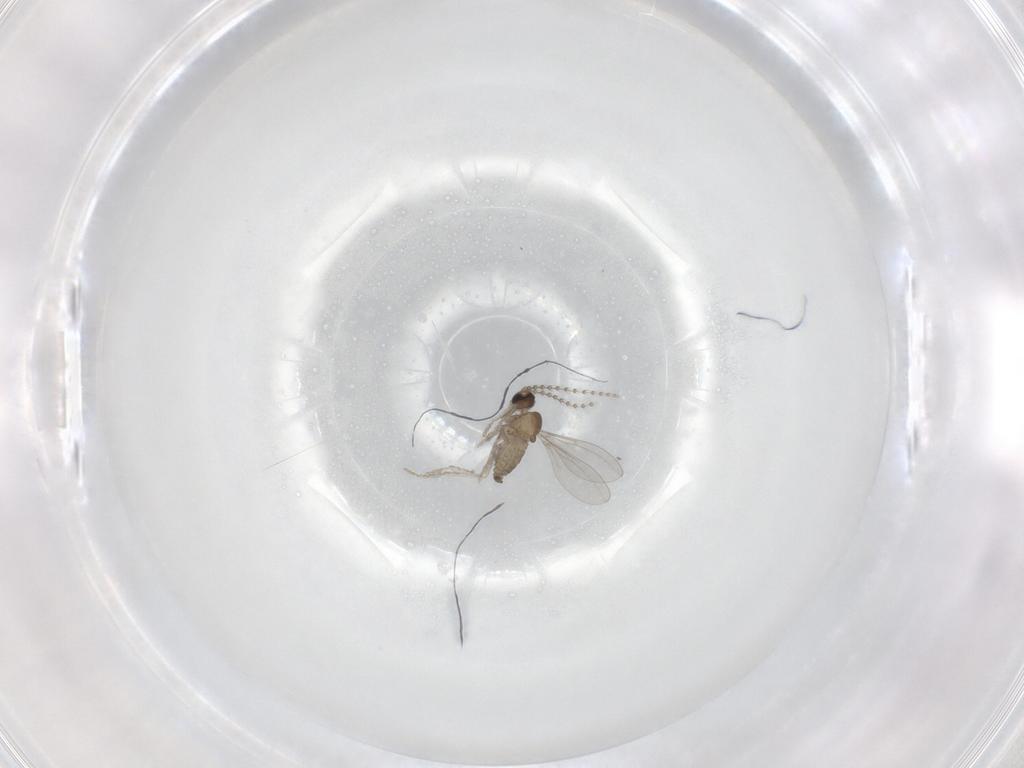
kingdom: Animalia
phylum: Arthropoda
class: Insecta
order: Diptera
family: Cecidomyiidae
